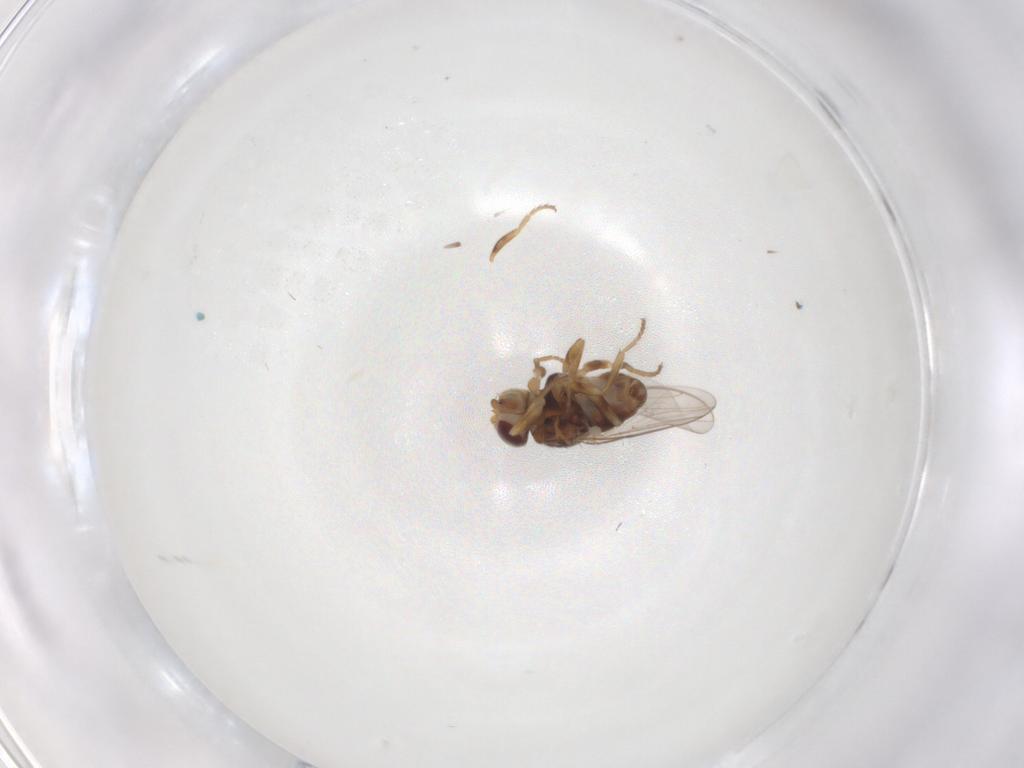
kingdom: Animalia
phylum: Arthropoda
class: Insecta
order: Diptera
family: Chloropidae
